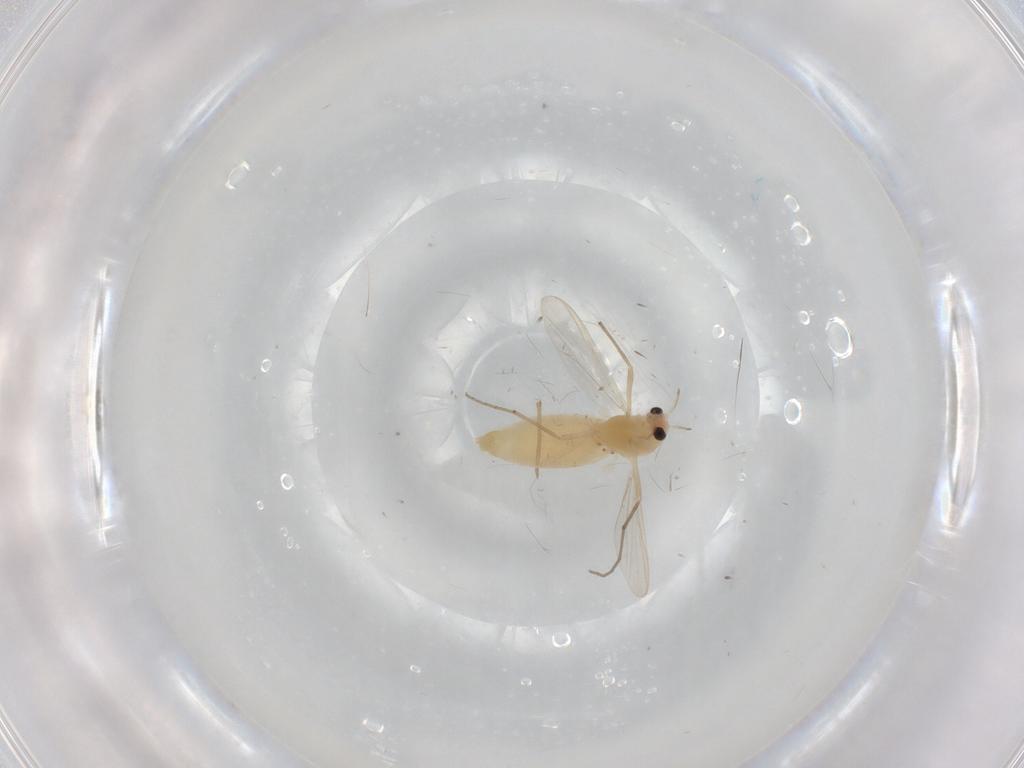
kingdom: Animalia
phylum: Arthropoda
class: Insecta
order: Diptera
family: Chironomidae
